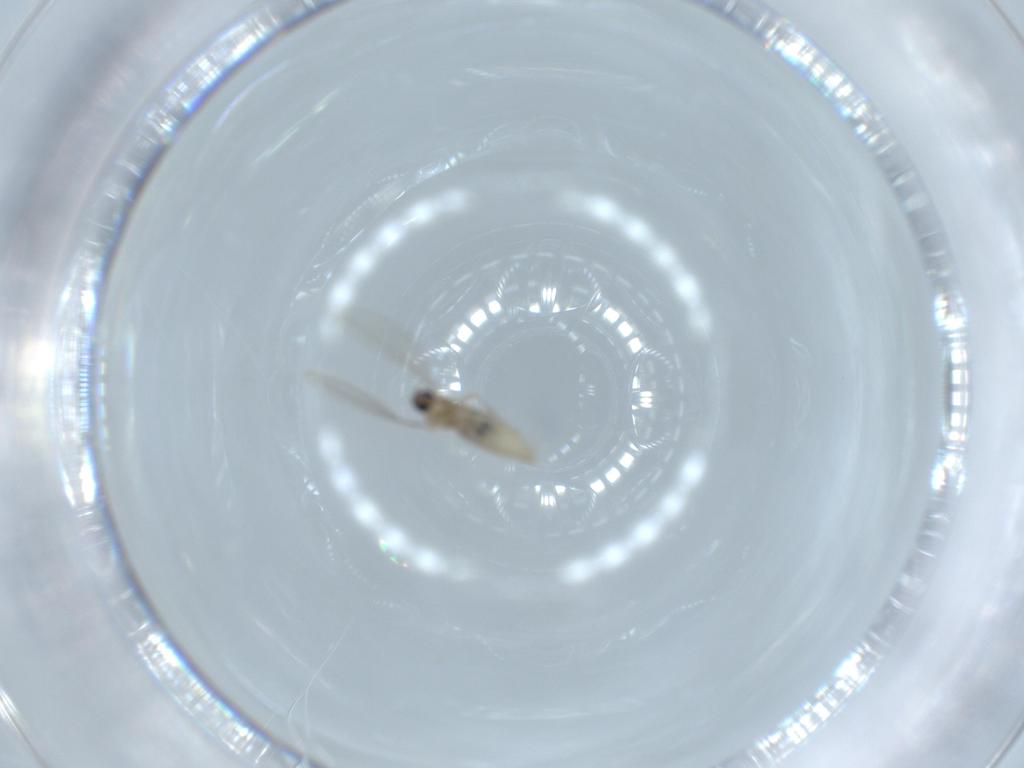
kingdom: Animalia
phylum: Arthropoda
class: Insecta
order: Diptera
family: Cecidomyiidae
